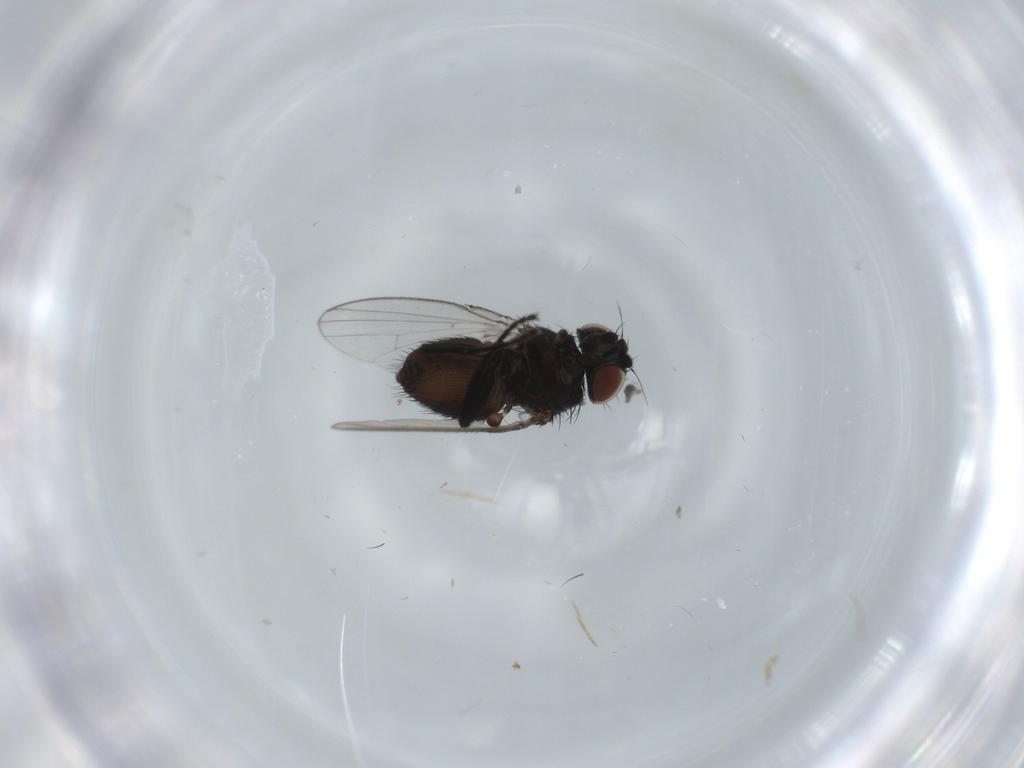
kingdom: Animalia
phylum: Arthropoda
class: Insecta
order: Diptera
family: Milichiidae
